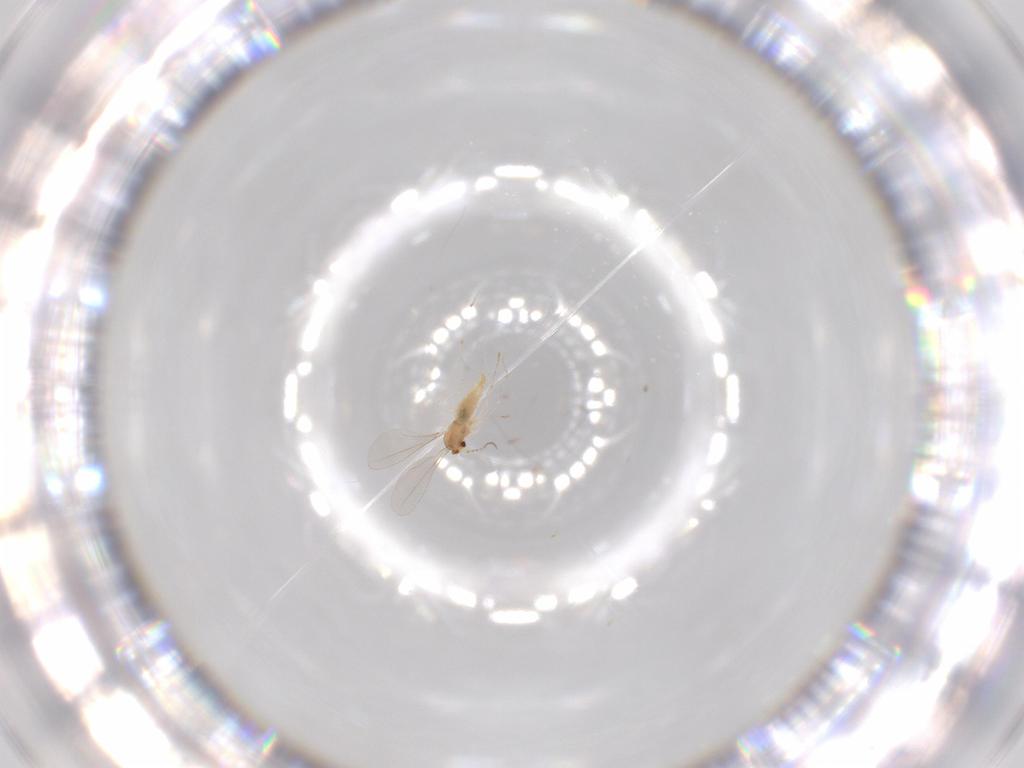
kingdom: Animalia
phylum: Arthropoda
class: Insecta
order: Diptera
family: Cecidomyiidae
